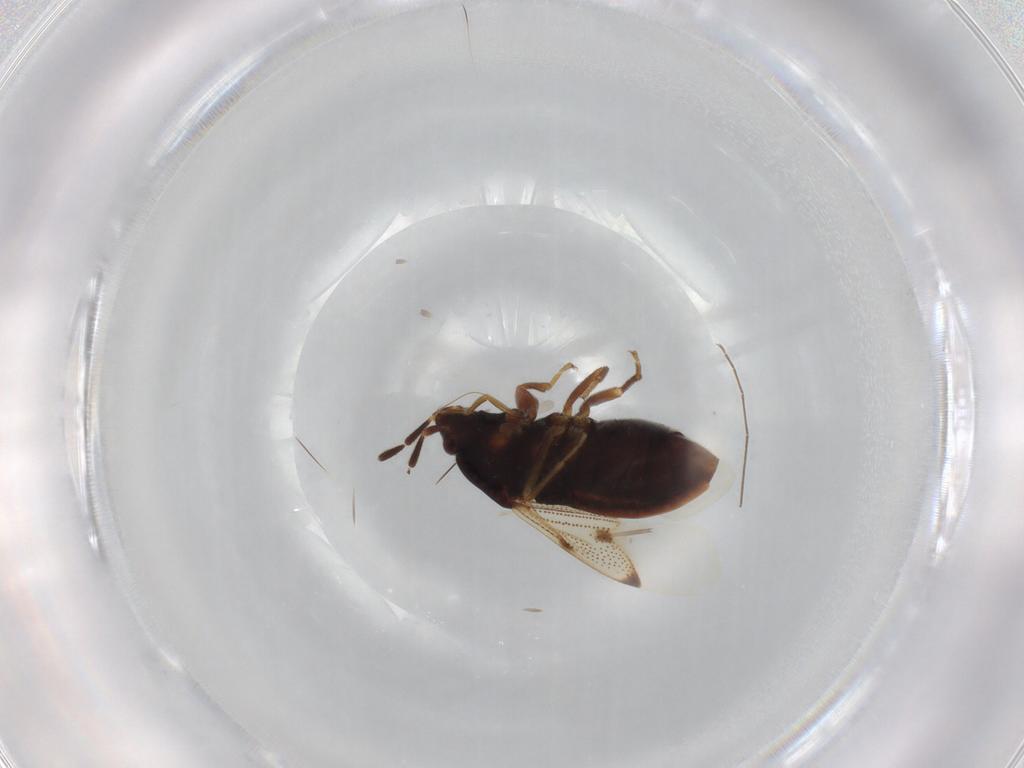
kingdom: Animalia
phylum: Arthropoda
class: Insecta
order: Hemiptera
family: Rhyparochromidae
